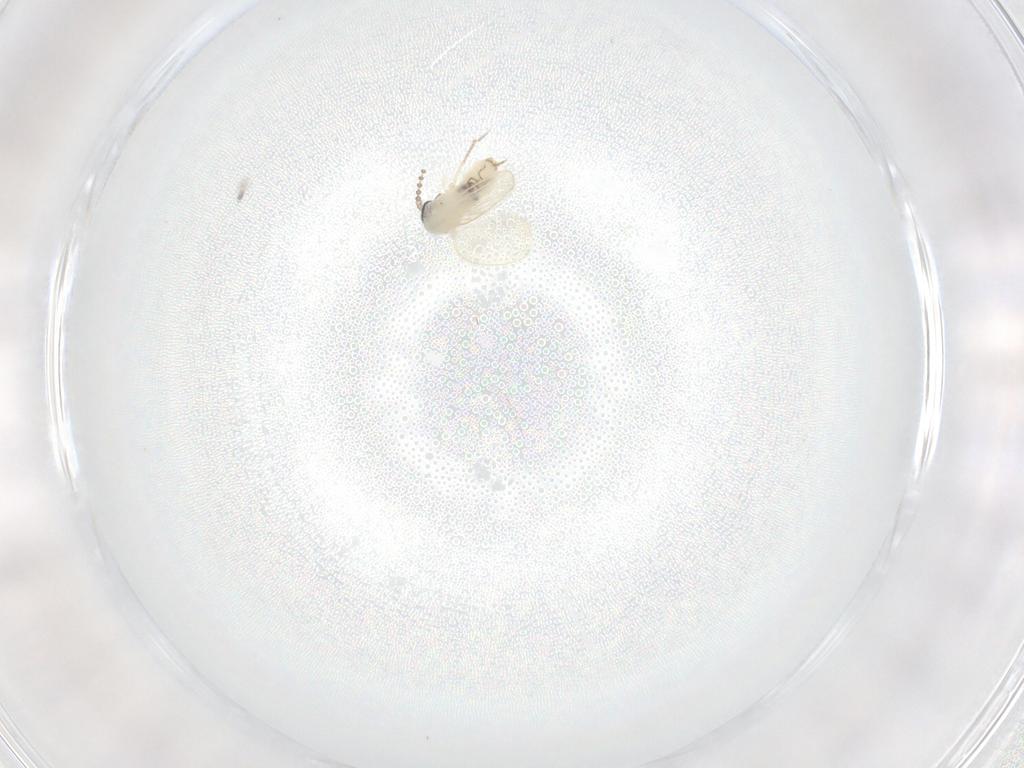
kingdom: Animalia
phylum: Arthropoda
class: Insecta
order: Diptera
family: Psychodidae
